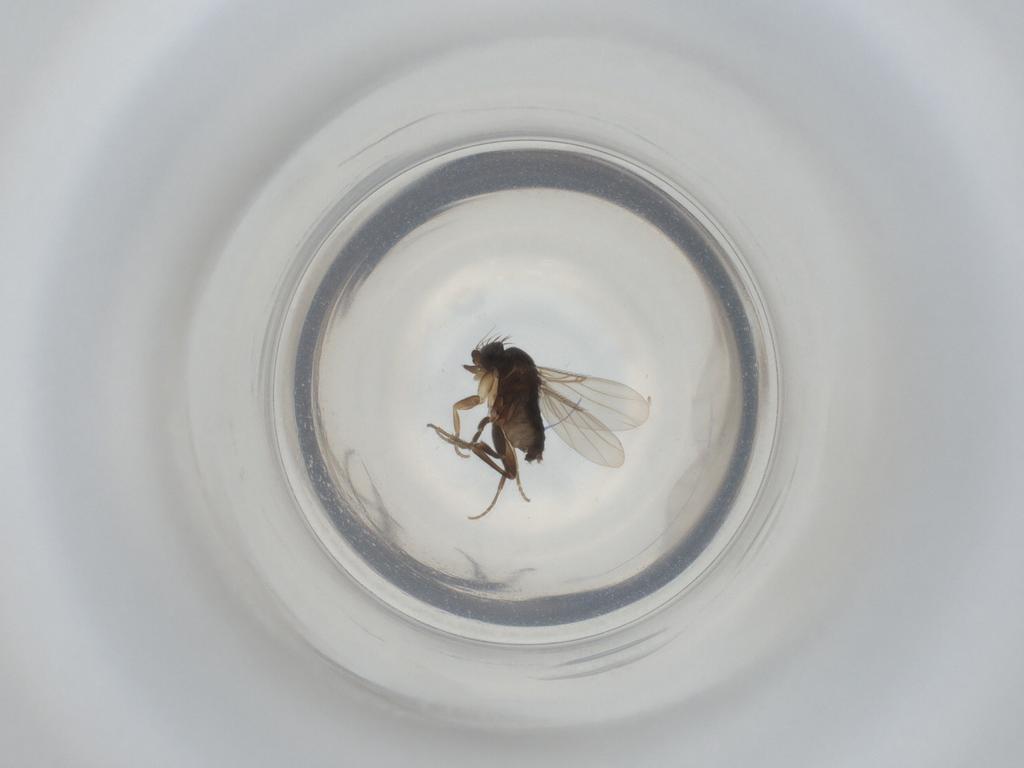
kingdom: Animalia
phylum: Arthropoda
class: Insecta
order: Diptera
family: Phoridae
